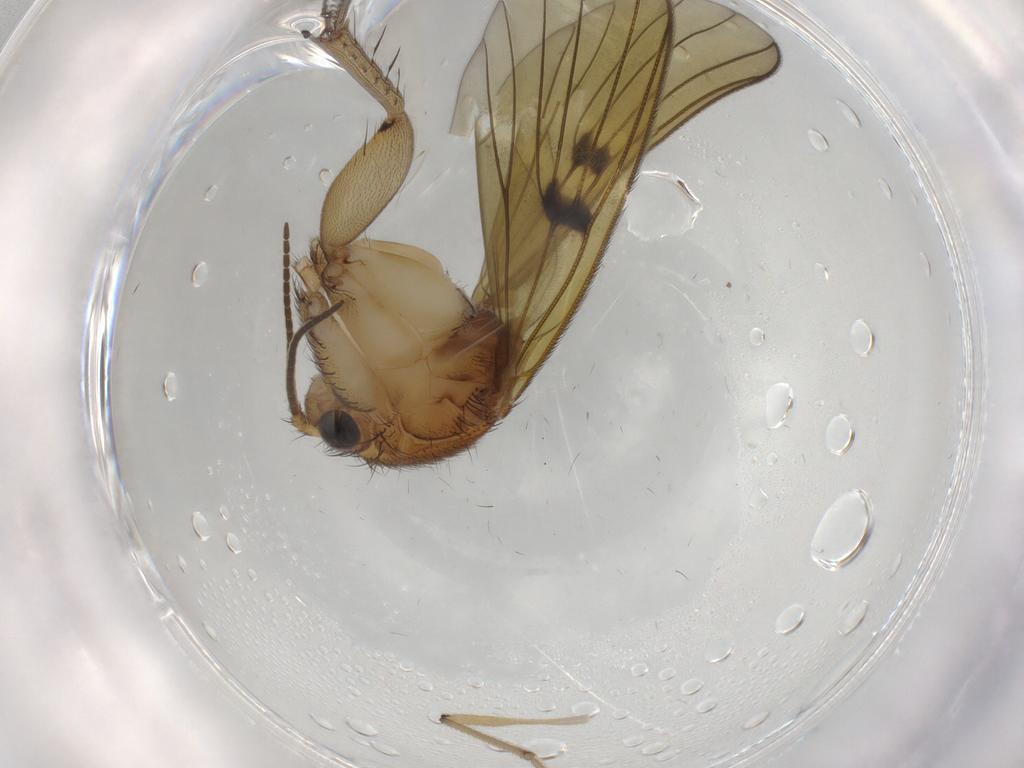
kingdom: Animalia
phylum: Arthropoda
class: Insecta
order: Diptera
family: Mycetophilidae
